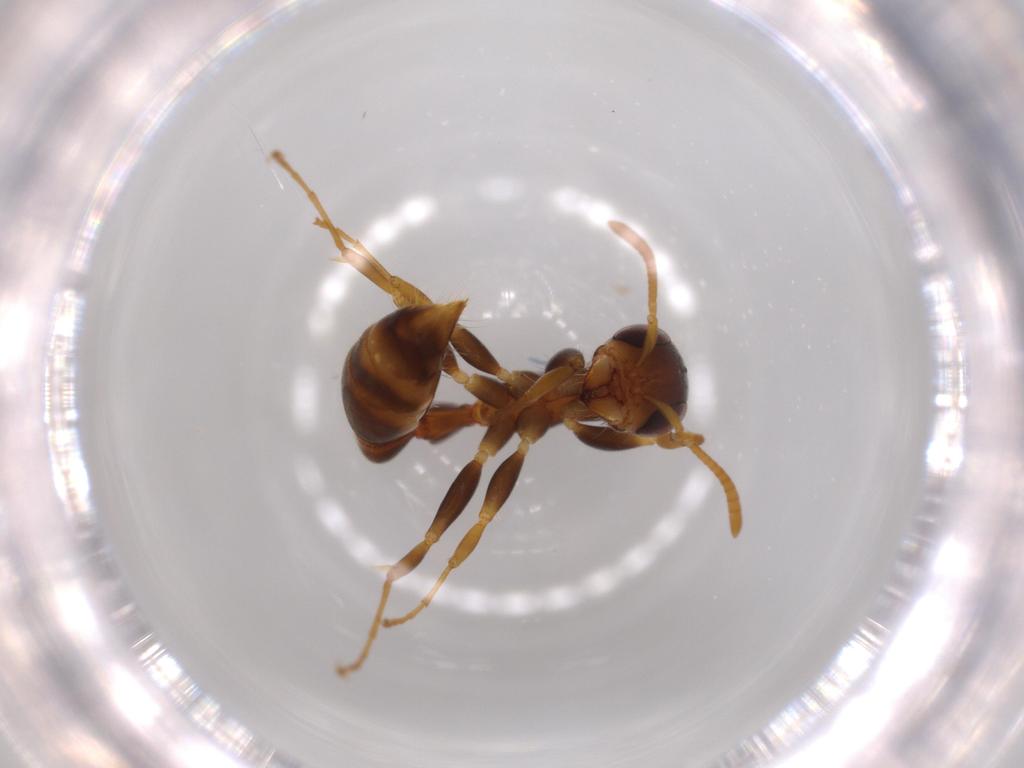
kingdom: Animalia
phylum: Arthropoda
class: Insecta
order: Hymenoptera
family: Formicidae
